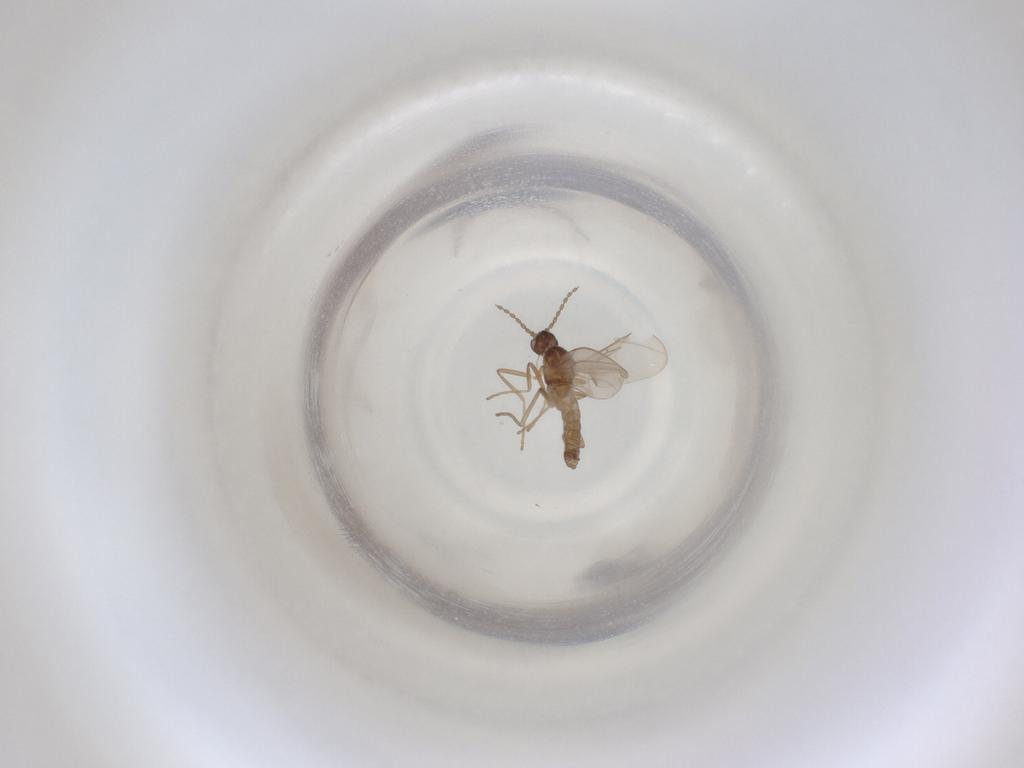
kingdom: Animalia
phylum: Arthropoda
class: Insecta
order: Diptera
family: Cecidomyiidae
